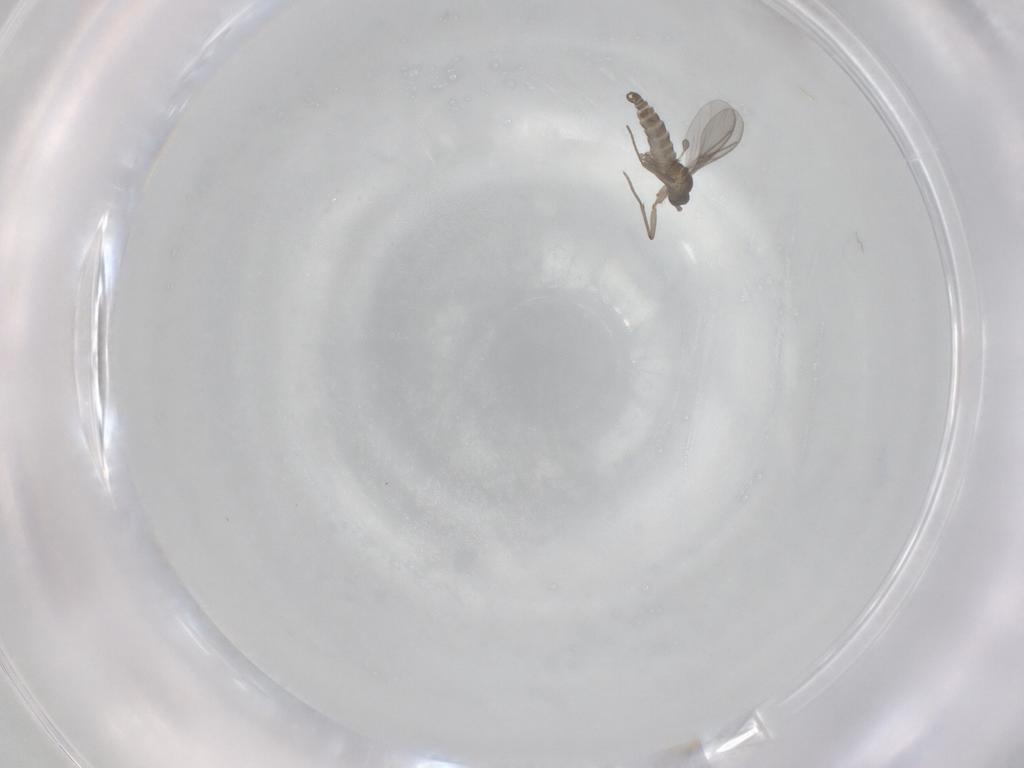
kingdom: Animalia
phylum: Arthropoda
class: Insecta
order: Diptera
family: Sciaridae
